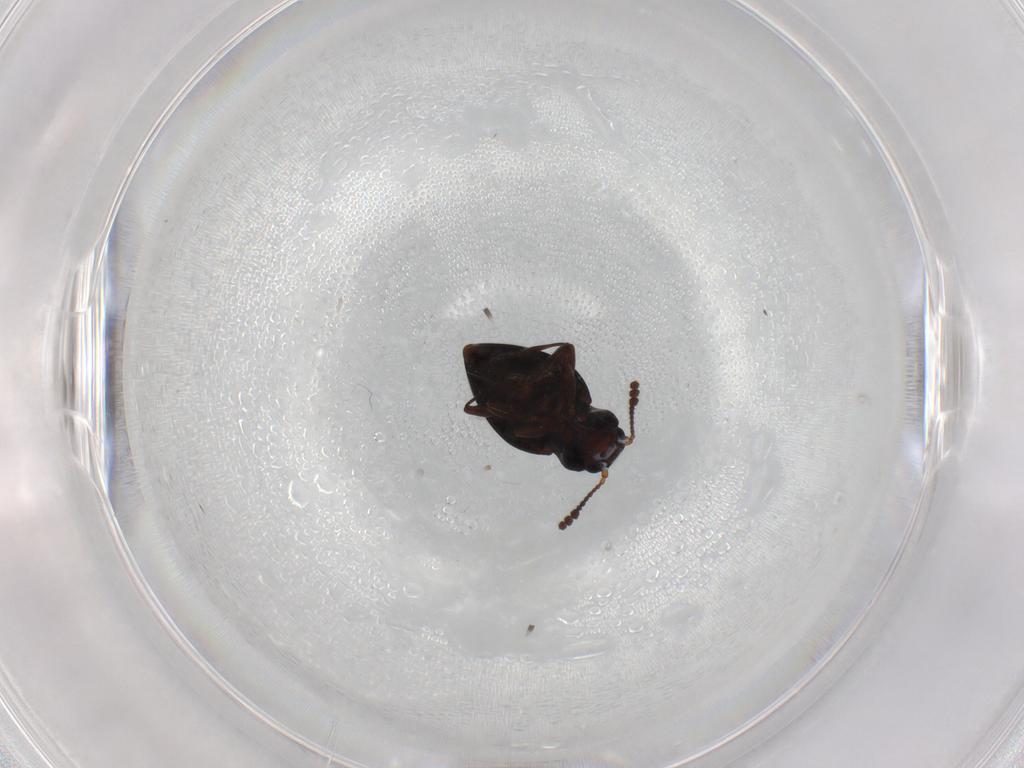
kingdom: Animalia
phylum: Arthropoda
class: Insecta
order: Coleoptera
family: Erotylidae
